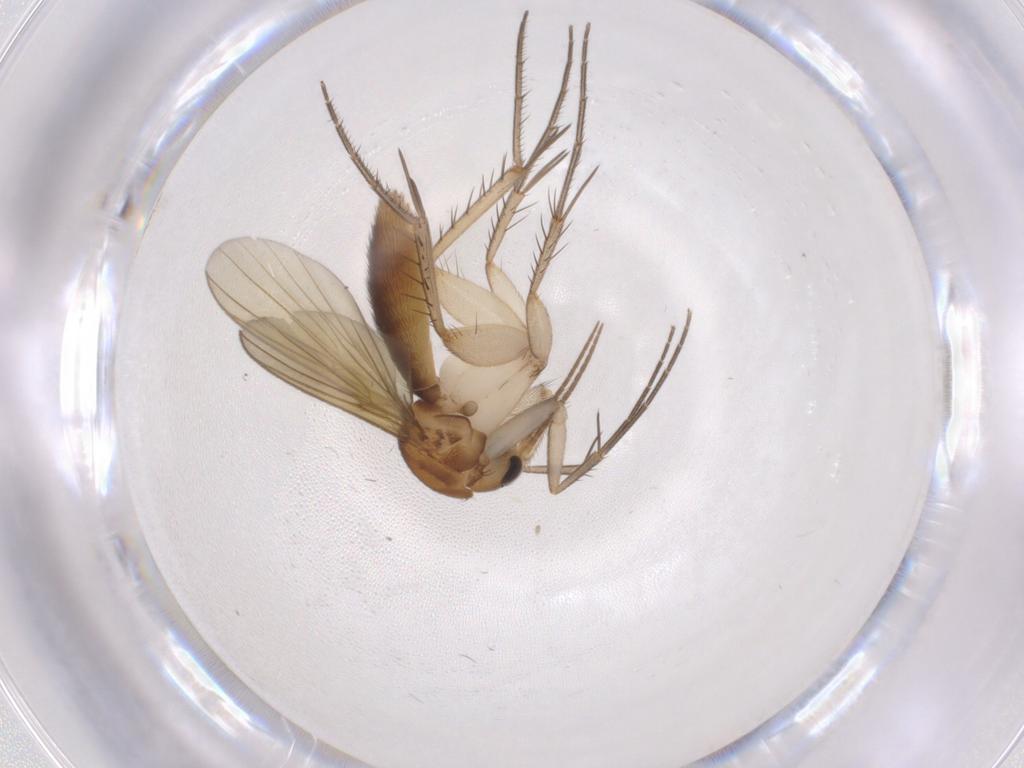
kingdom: Animalia
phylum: Arthropoda
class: Insecta
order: Diptera
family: Mycetophilidae
